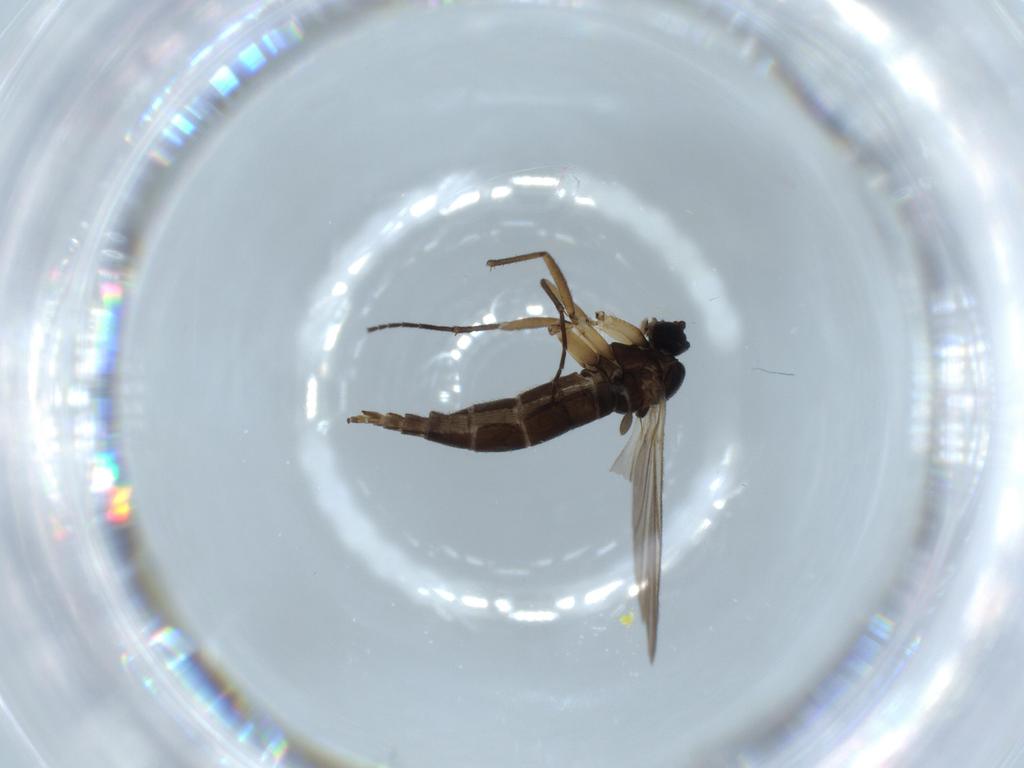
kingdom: Animalia
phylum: Arthropoda
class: Insecta
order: Diptera
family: Sciaridae
